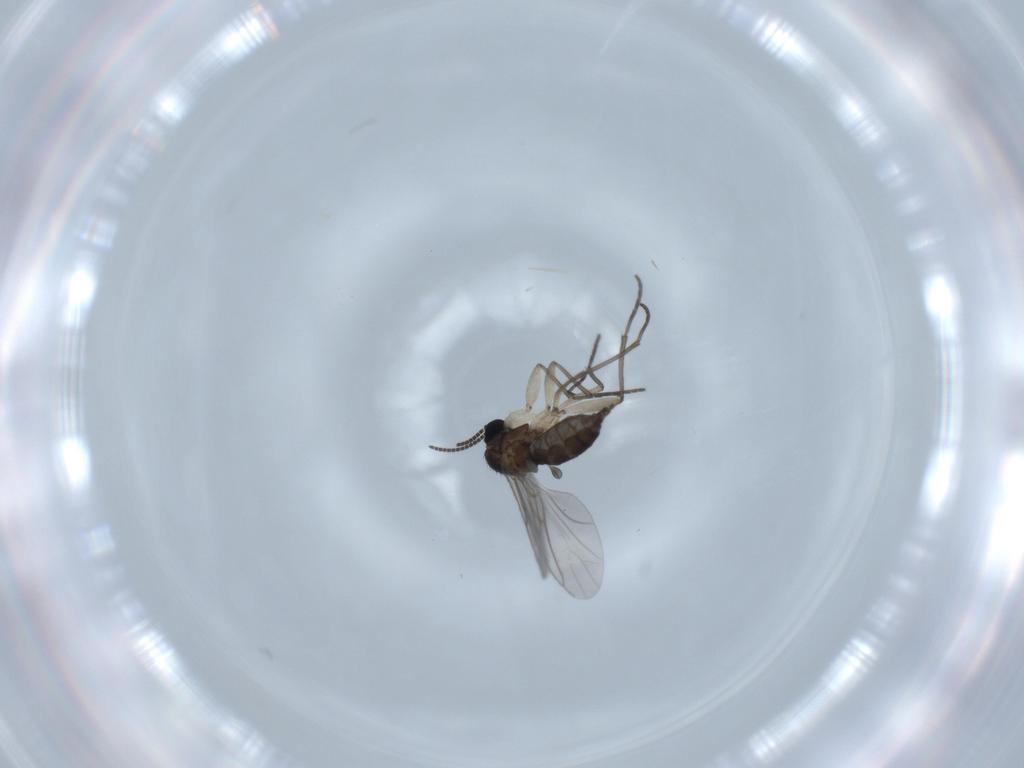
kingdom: Animalia
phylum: Arthropoda
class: Insecta
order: Diptera
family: Sciaridae
